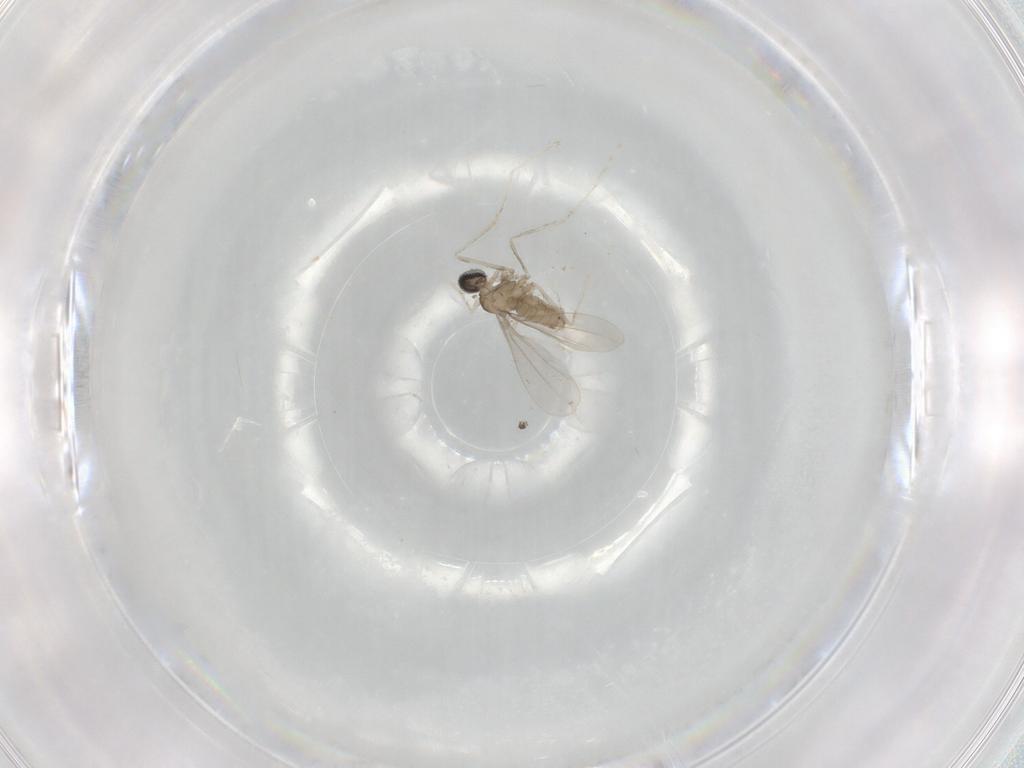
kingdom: Animalia
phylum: Arthropoda
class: Insecta
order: Diptera
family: Cecidomyiidae
